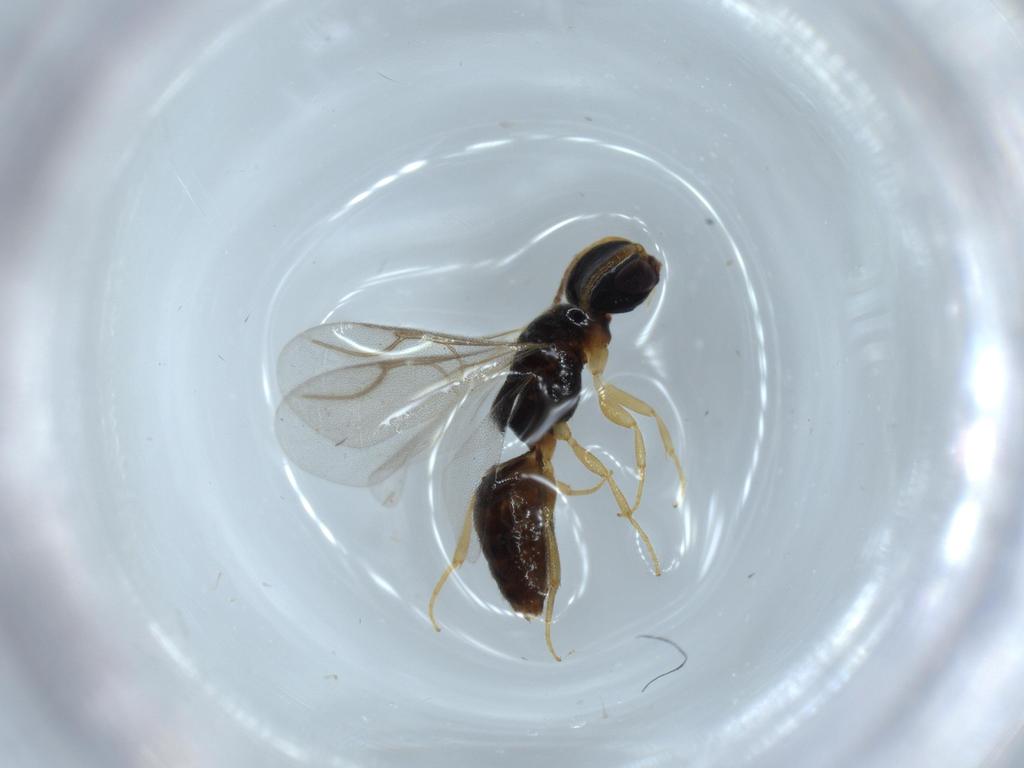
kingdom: Animalia
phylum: Arthropoda
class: Insecta
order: Hymenoptera
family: Bethylidae
